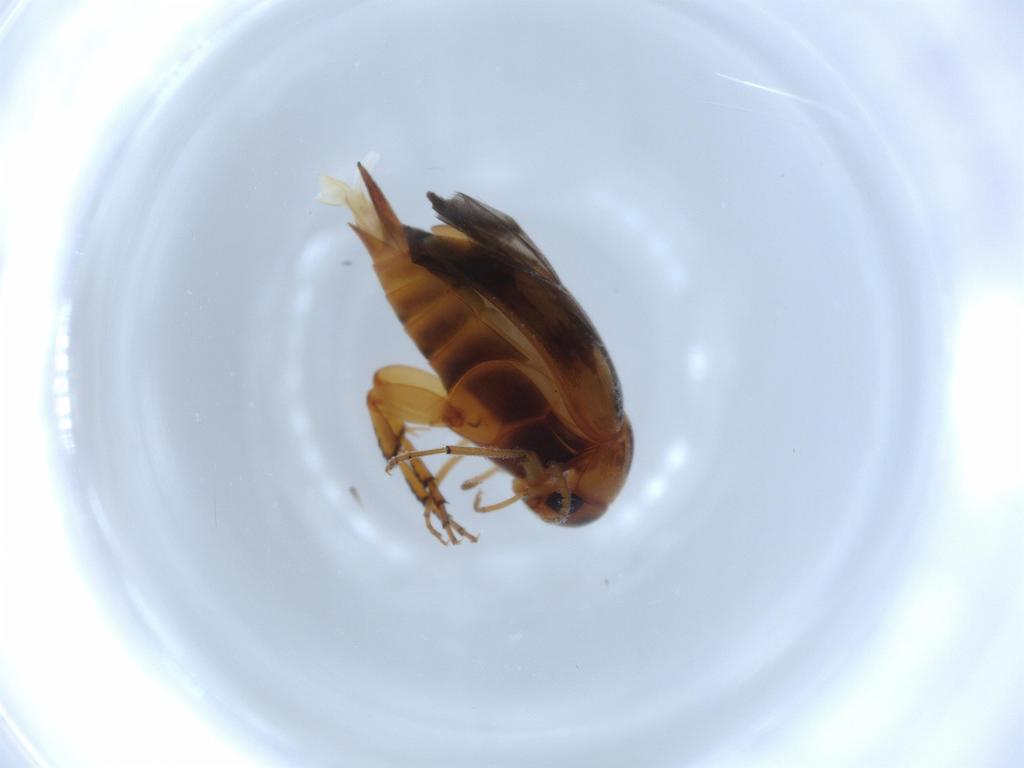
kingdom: Animalia
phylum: Arthropoda
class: Insecta
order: Coleoptera
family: Mordellidae
